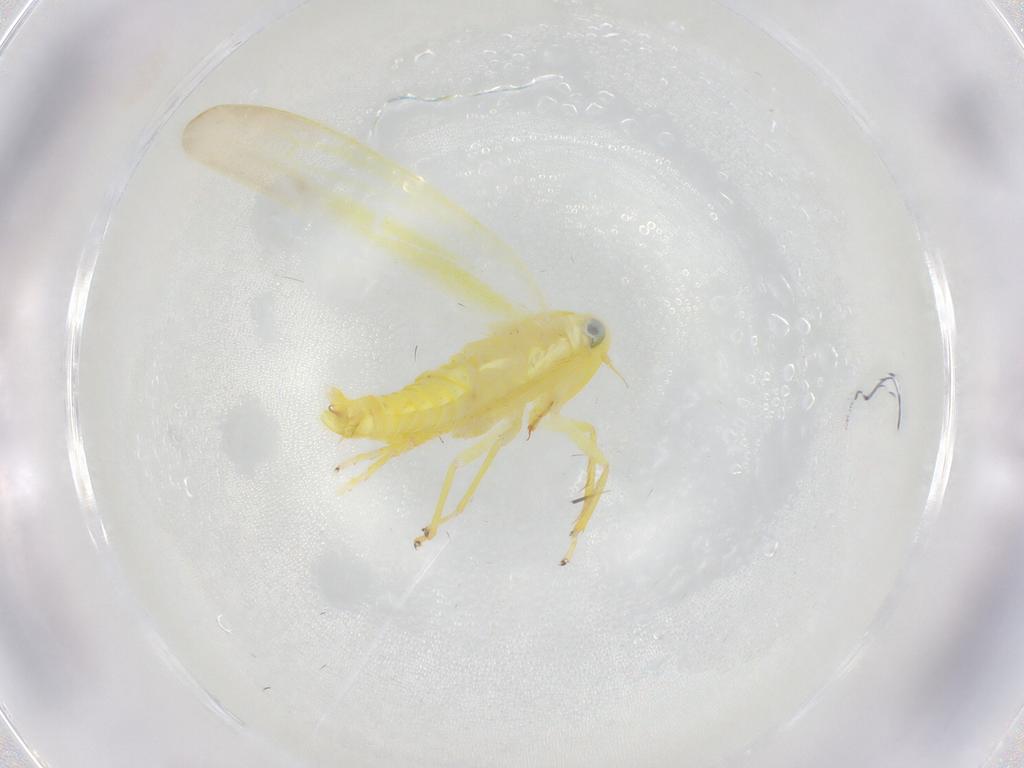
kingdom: Animalia
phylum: Arthropoda
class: Insecta
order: Hemiptera
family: Cicadellidae
